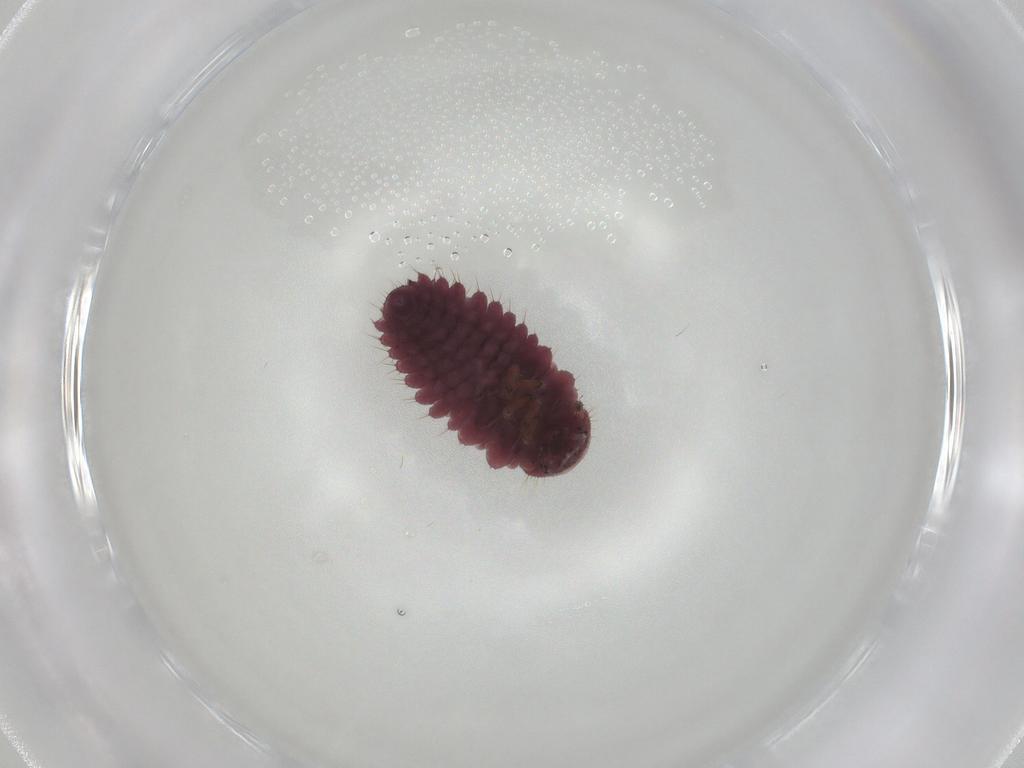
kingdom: Animalia
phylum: Arthropoda
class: Insecta
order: Coleoptera
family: Coccinellidae
